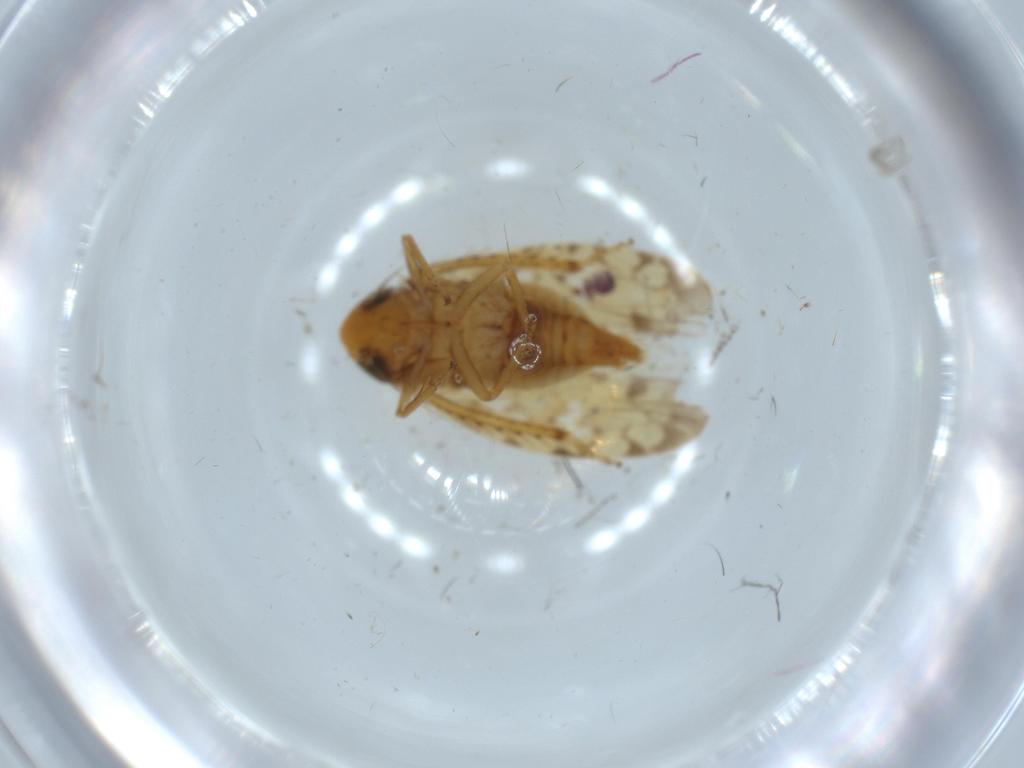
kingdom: Animalia
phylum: Arthropoda
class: Insecta
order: Hemiptera
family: Cicadellidae
